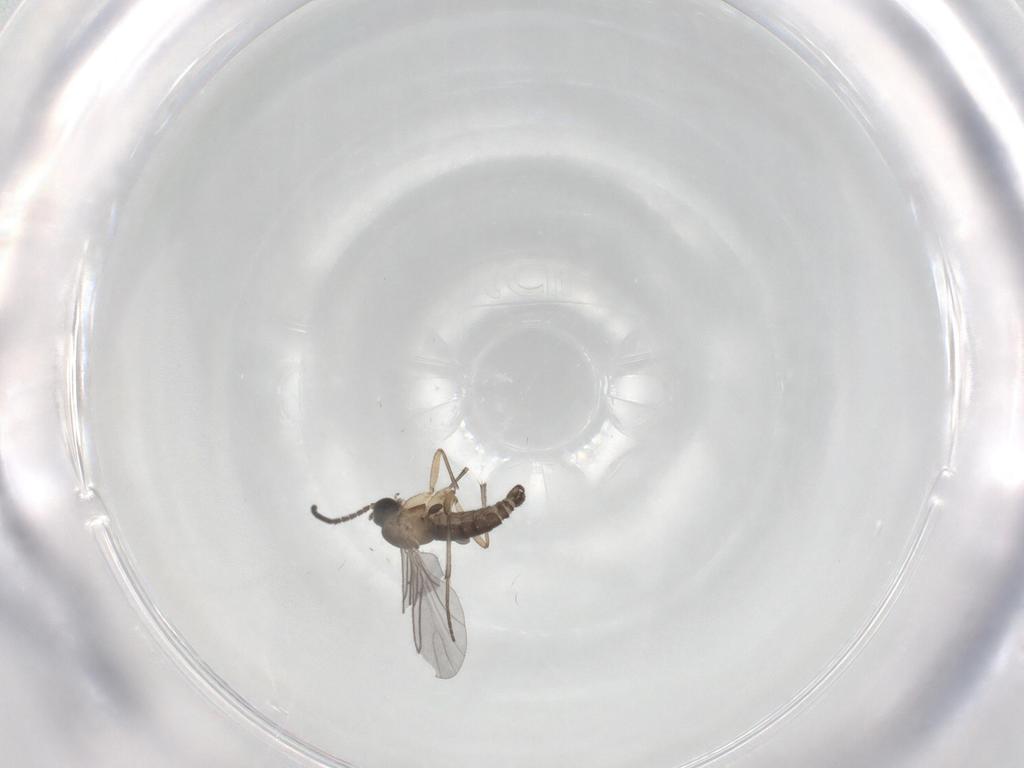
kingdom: Animalia
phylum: Arthropoda
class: Insecta
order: Diptera
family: Sciaridae
